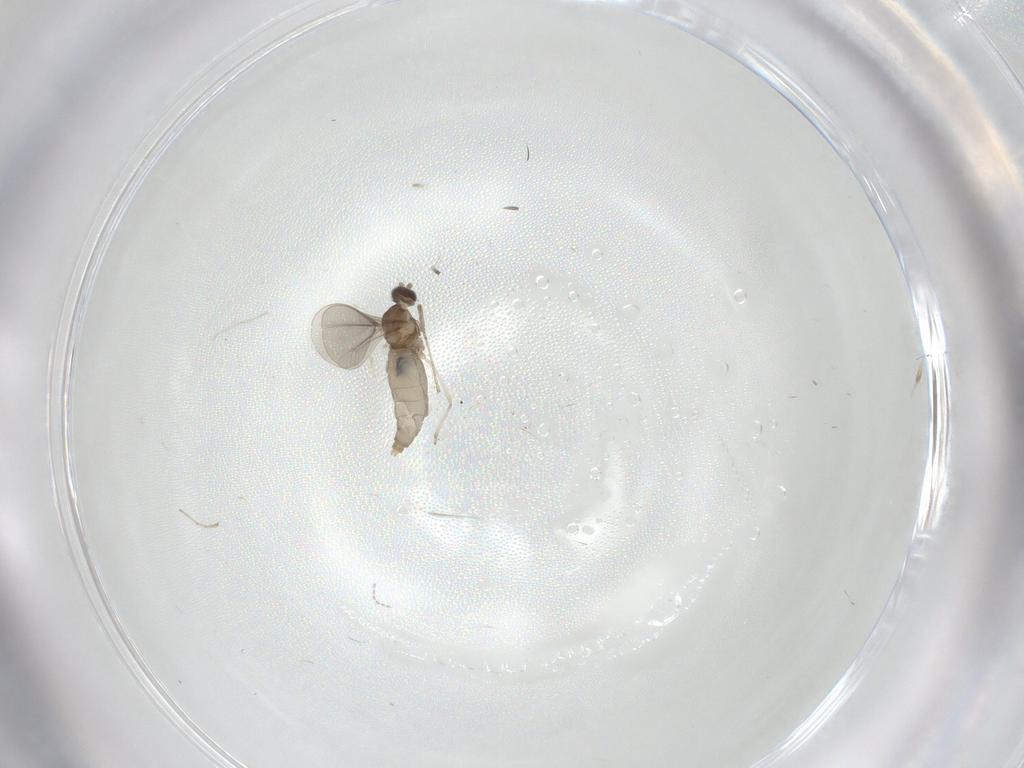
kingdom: Animalia
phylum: Arthropoda
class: Insecta
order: Diptera
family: Cecidomyiidae
